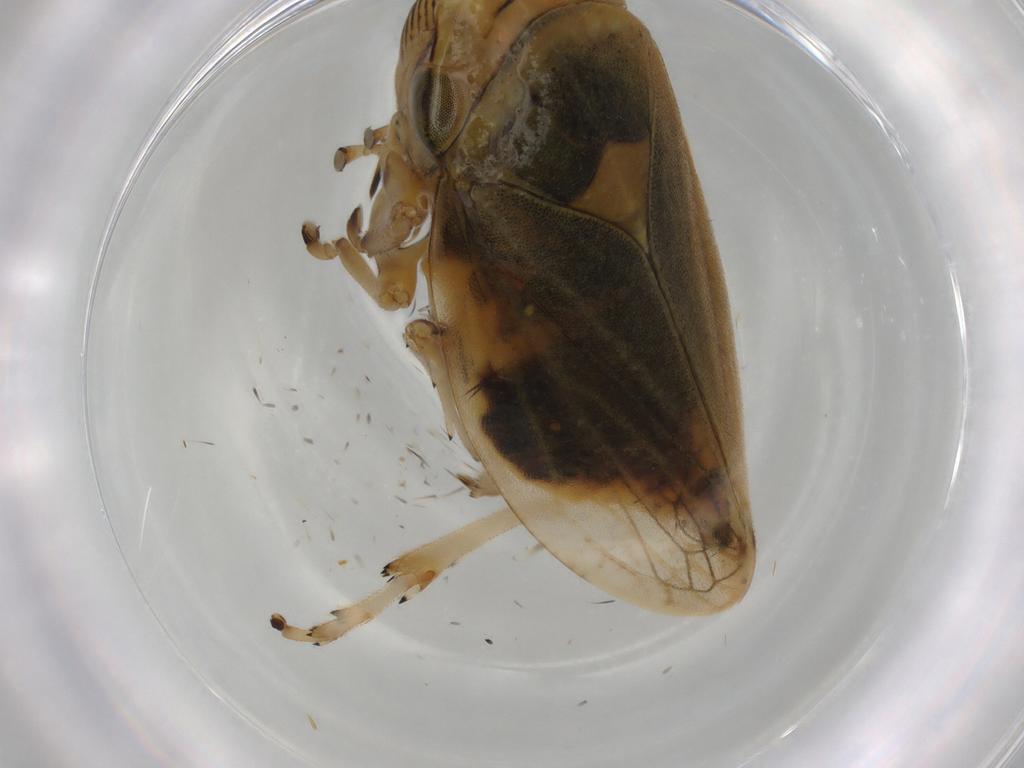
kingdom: Animalia
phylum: Arthropoda
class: Insecta
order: Hemiptera
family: Aphrophoridae
